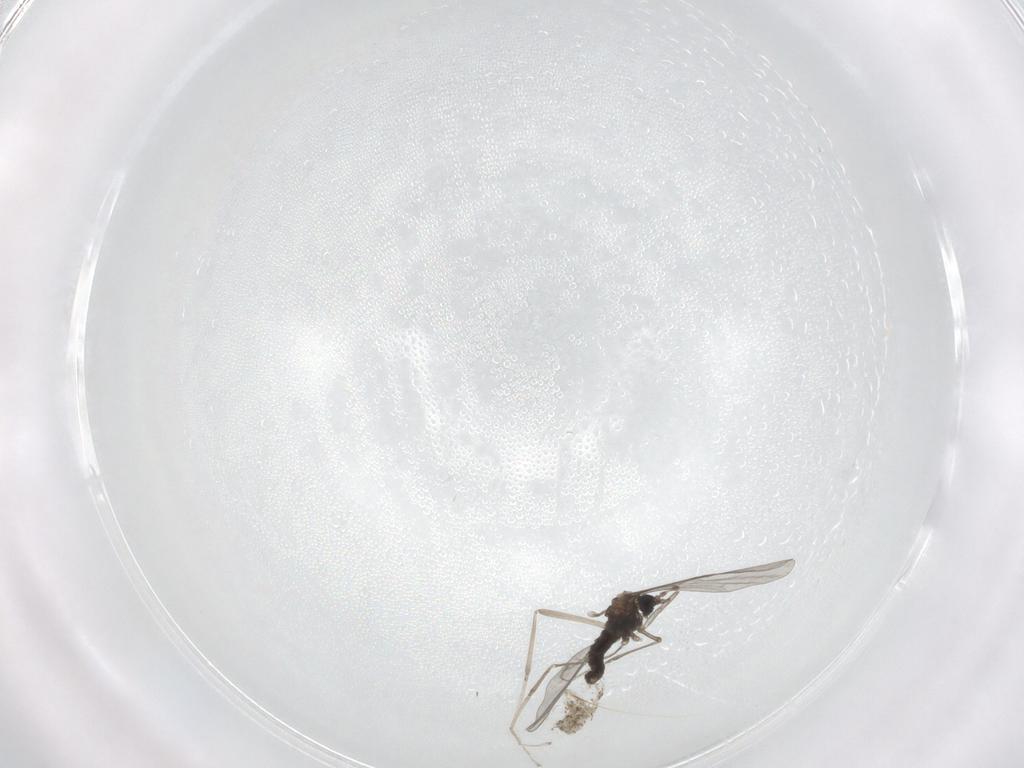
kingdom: Animalia
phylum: Arthropoda
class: Insecta
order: Diptera
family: Cecidomyiidae
